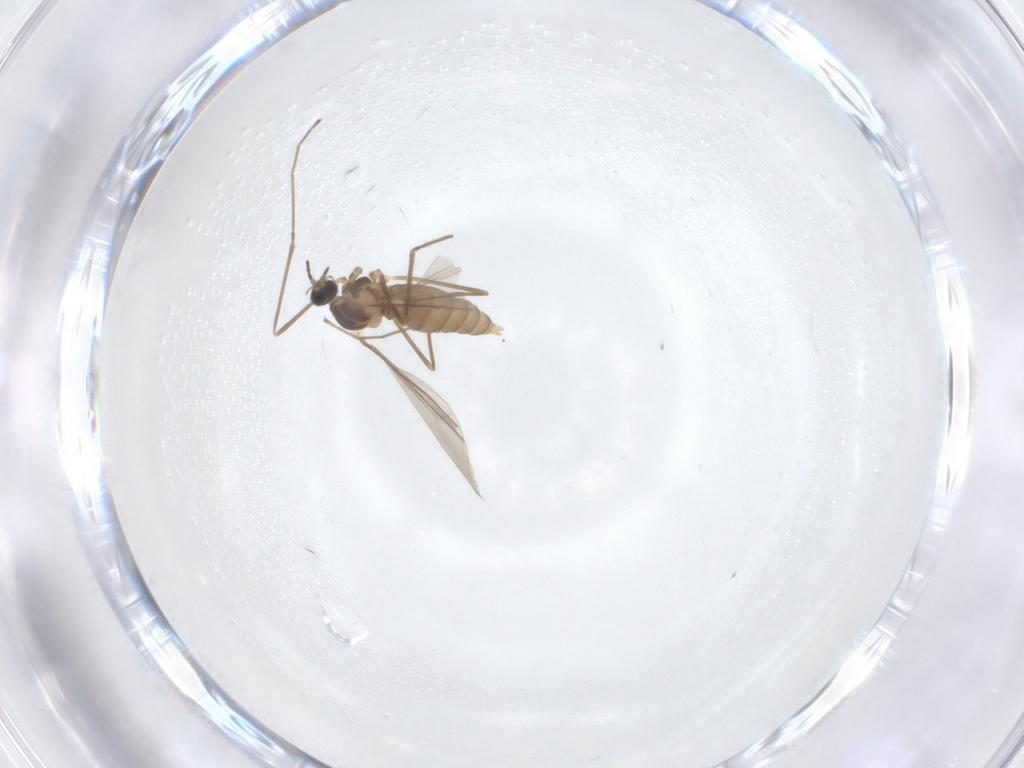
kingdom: Animalia
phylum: Arthropoda
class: Insecta
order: Diptera
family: Cecidomyiidae
